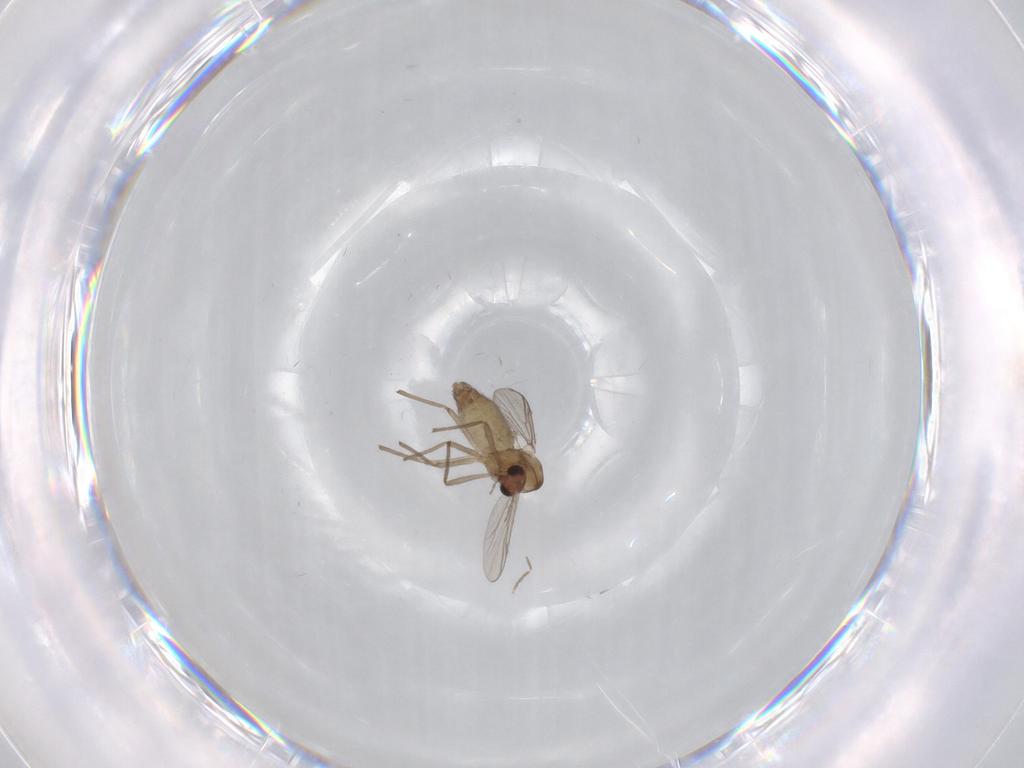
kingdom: Animalia
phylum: Arthropoda
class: Insecta
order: Diptera
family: Chironomidae
